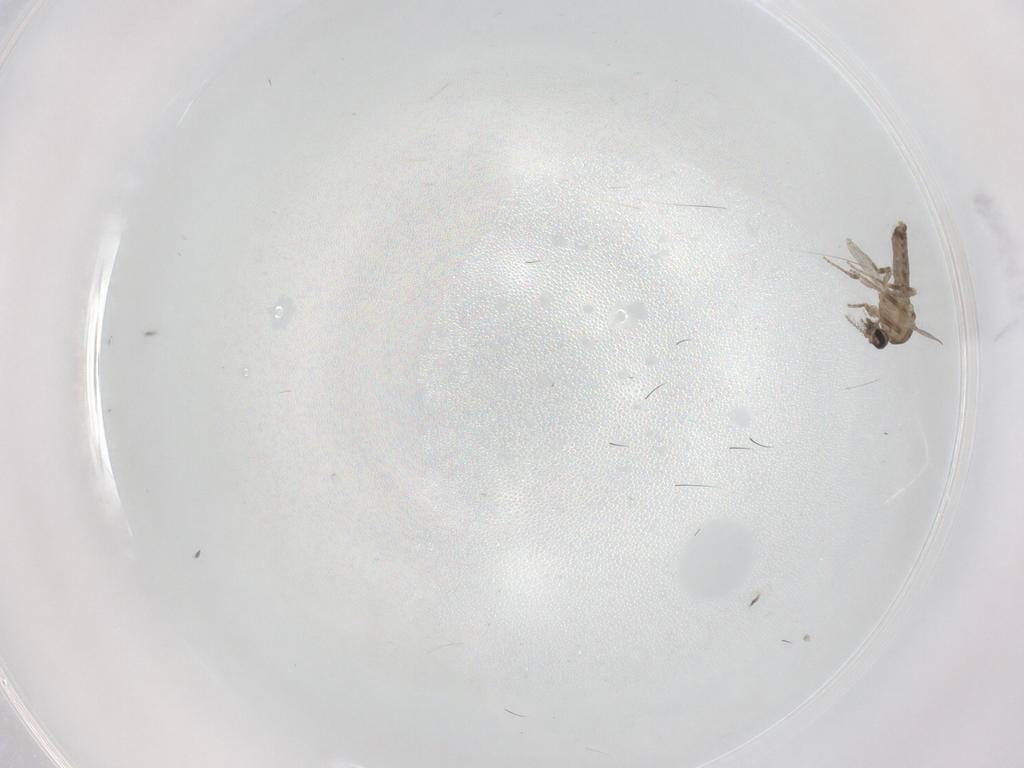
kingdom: Animalia
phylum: Arthropoda
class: Insecta
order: Diptera
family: Ceratopogonidae
